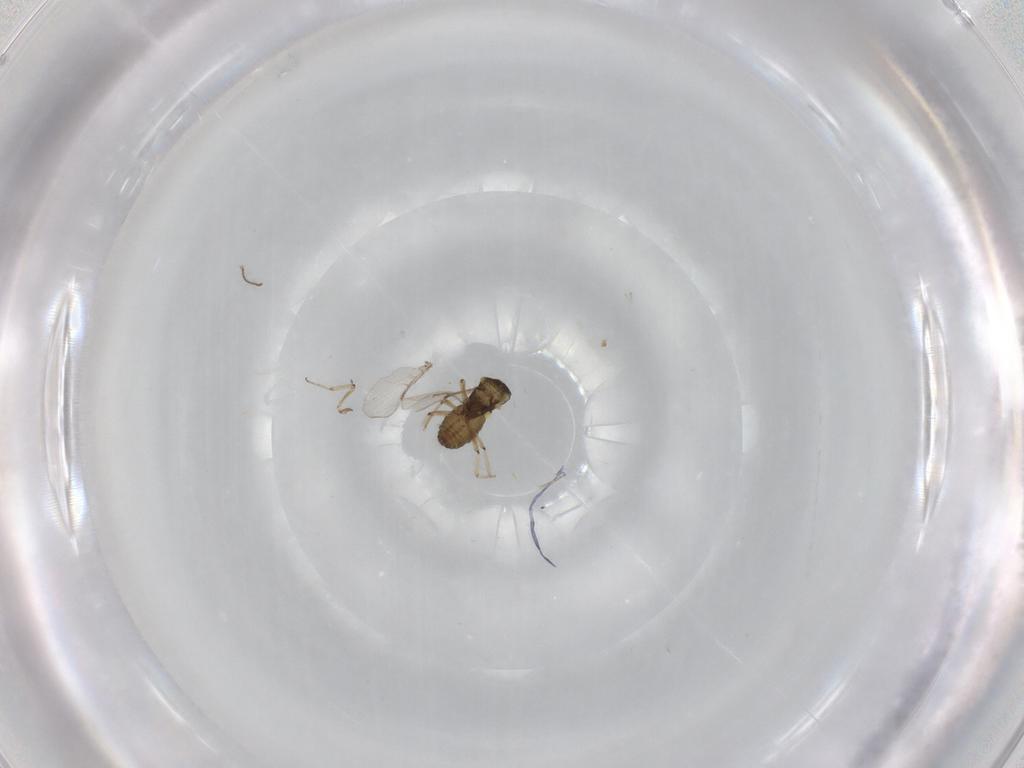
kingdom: Animalia
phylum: Arthropoda
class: Insecta
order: Diptera
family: Ceratopogonidae
